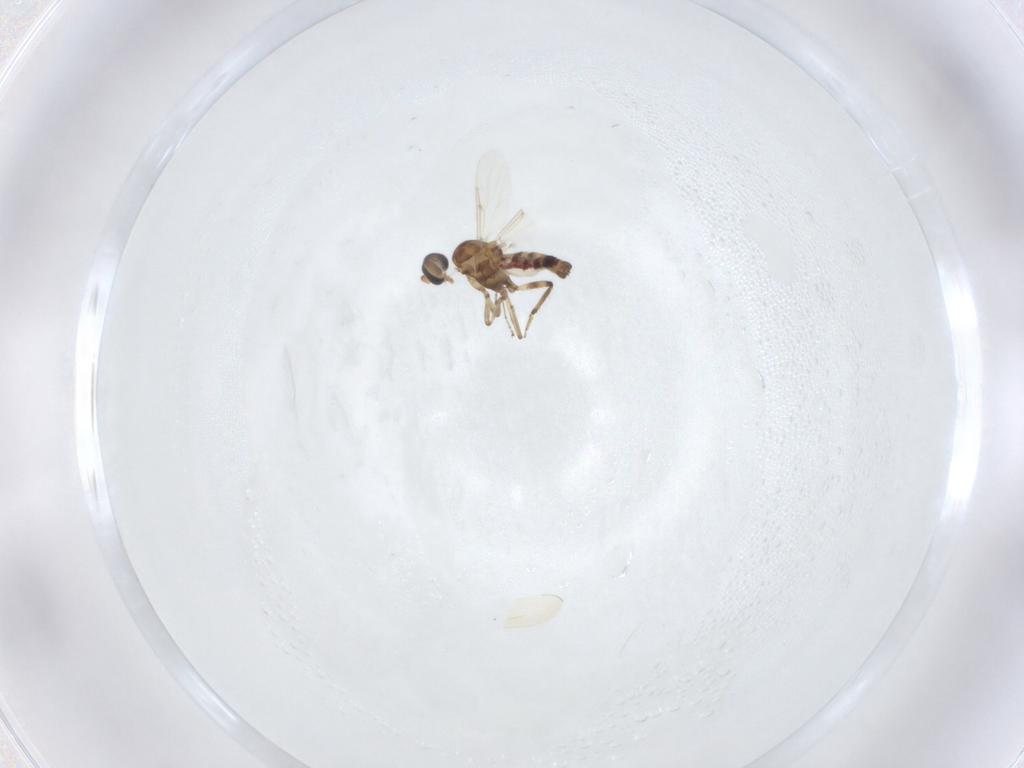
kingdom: Animalia
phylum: Arthropoda
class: Insecta
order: Diptera
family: Ceratopogonidae
